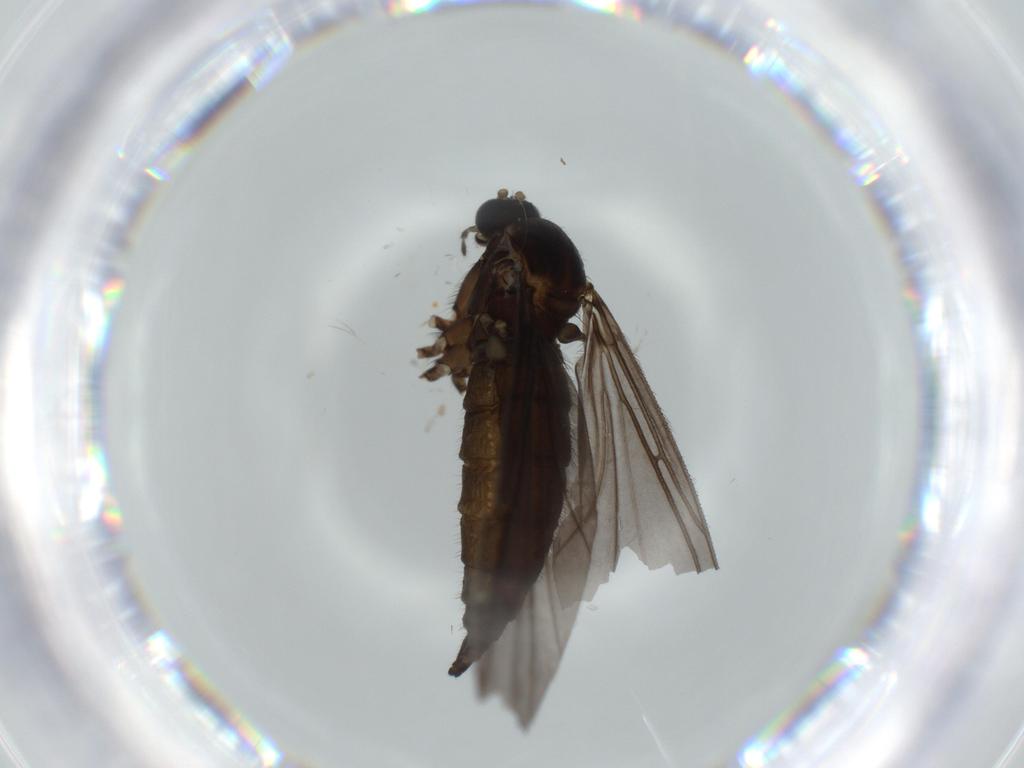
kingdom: Animalia
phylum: Arthropoda
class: Insecta
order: Diptera
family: Sciaridae
